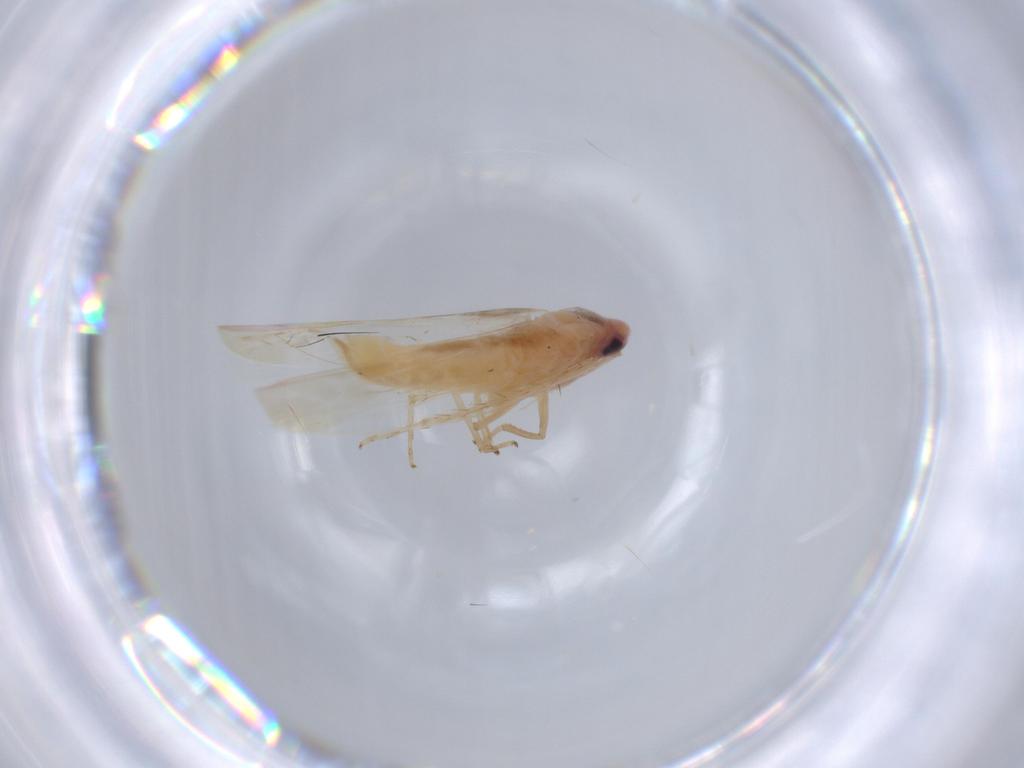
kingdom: Animalia
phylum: Arthropoda
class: Insecta
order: Hemiptera
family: Cicadellidae
